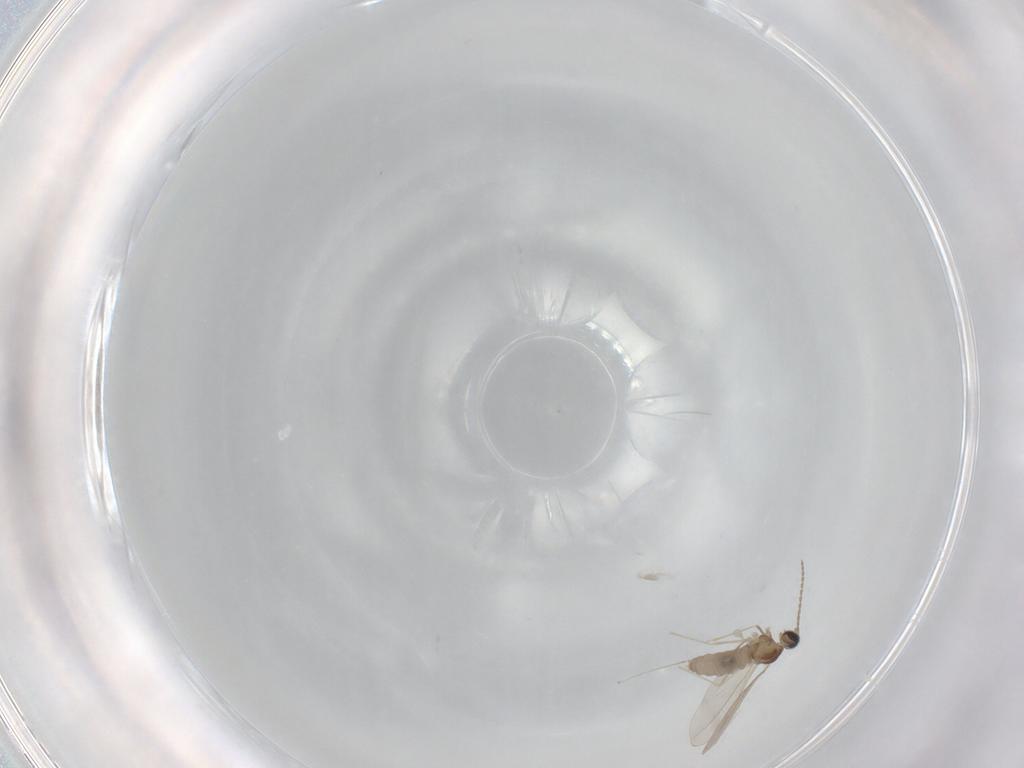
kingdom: Animalia
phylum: Arthropoda
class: Insecta
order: Diptera
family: Cecidomyiidae
